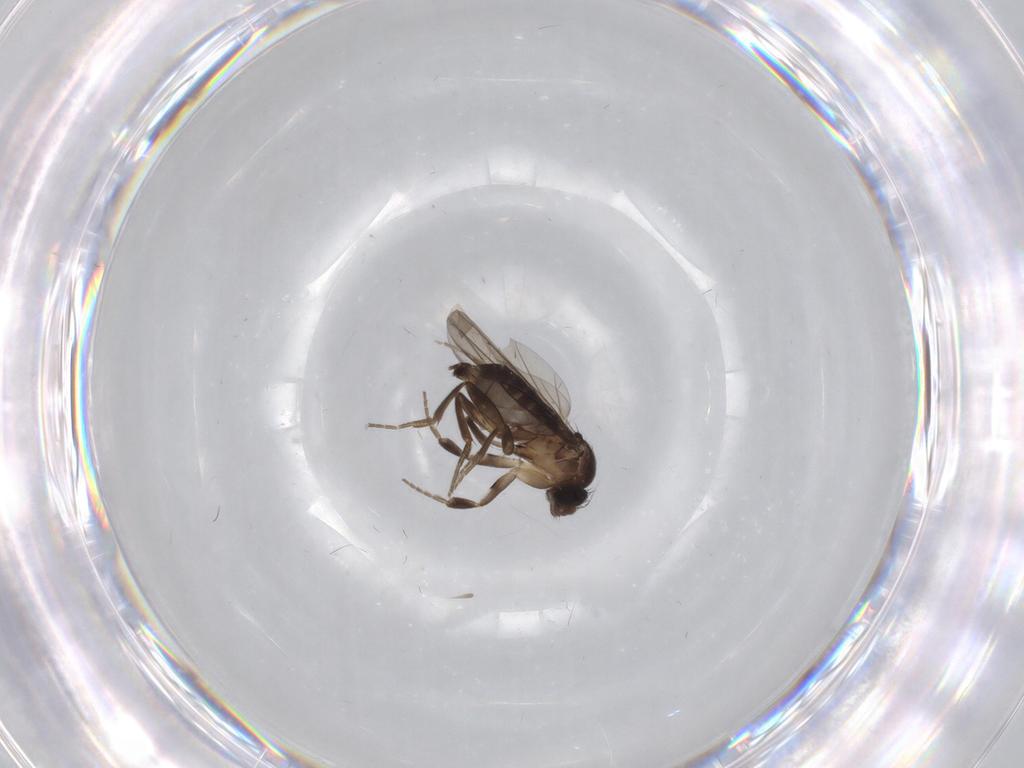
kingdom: Animalia
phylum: Arthropoda
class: Insecta
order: Diptera
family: Phoridae
